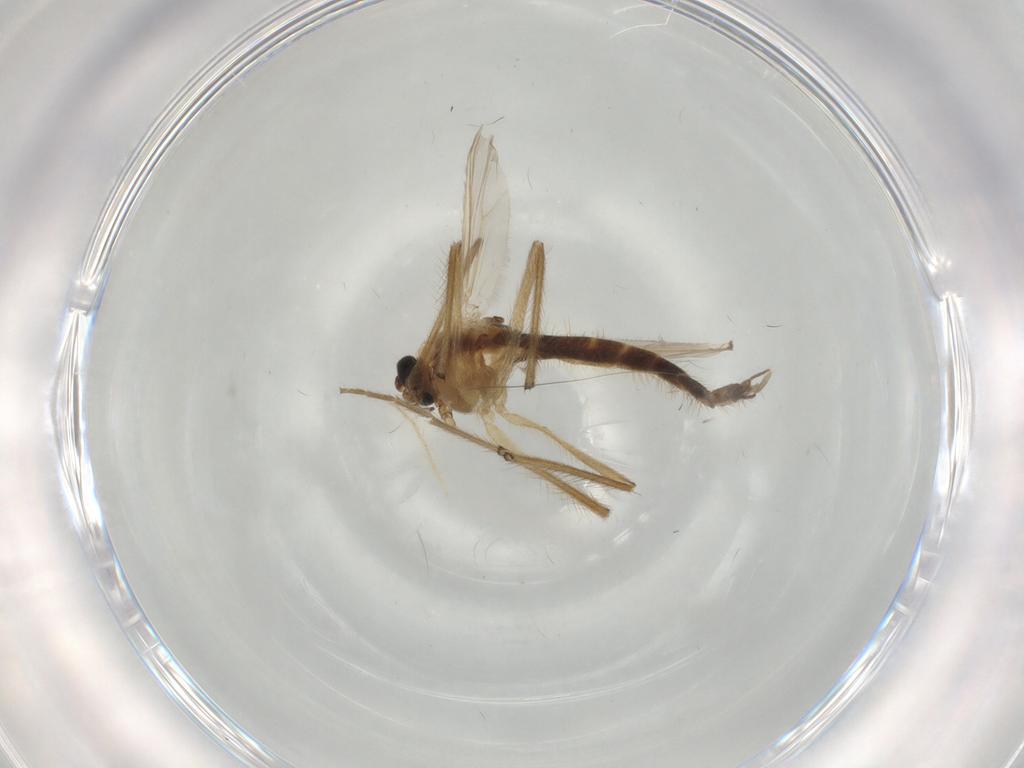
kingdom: Animalia
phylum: Arthropoda
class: Insecta
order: Diptera
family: Chironomidae
